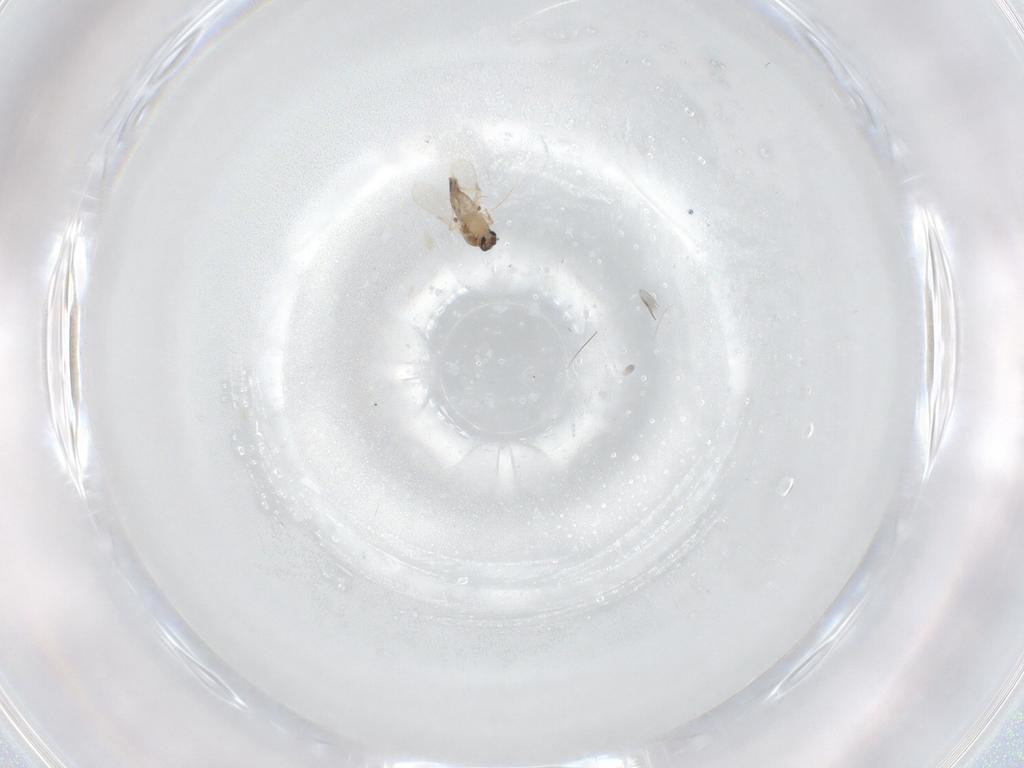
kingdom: Animalia
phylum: Arthropoda
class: Insecta
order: Diptera
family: Chironomidae
